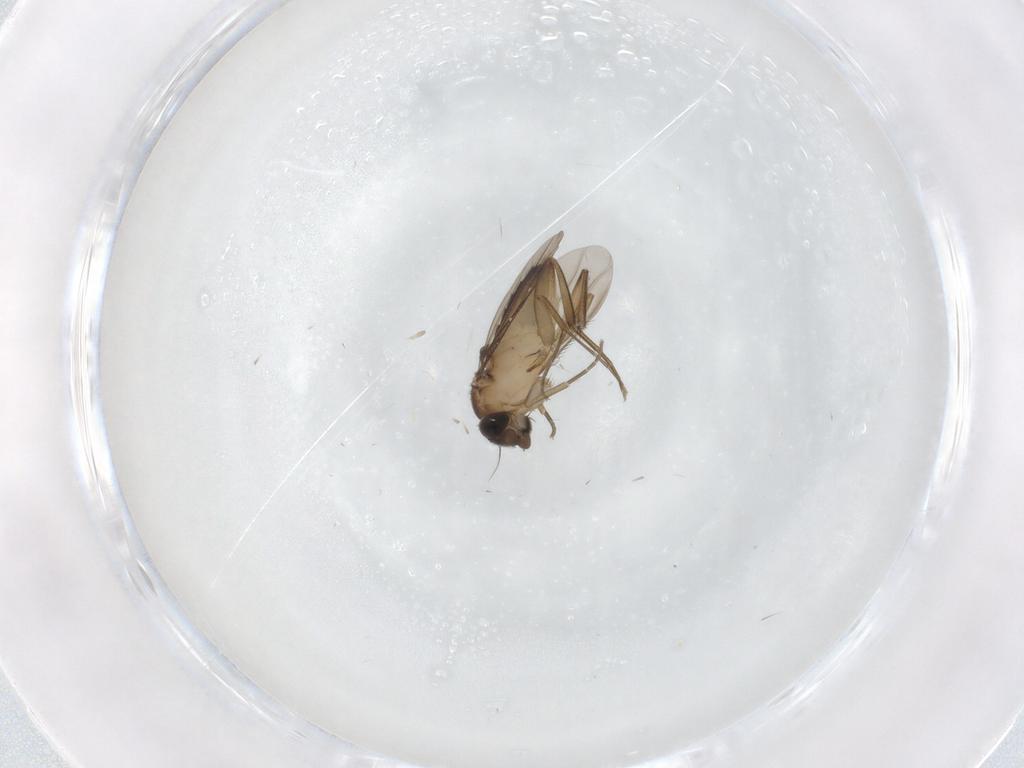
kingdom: Animalia
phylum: Arthropoda
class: Insecta
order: Diptera
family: Phoridae
